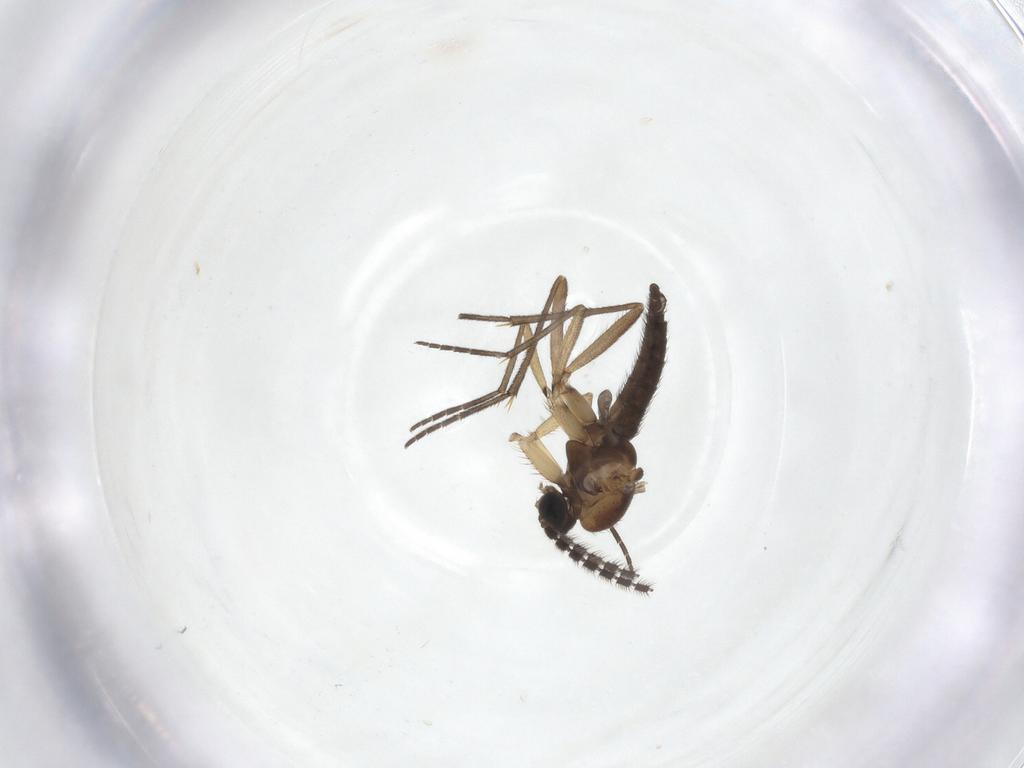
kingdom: Animalia
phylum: Arthropoda
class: Insecta
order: Diptera
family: Sciaridae
